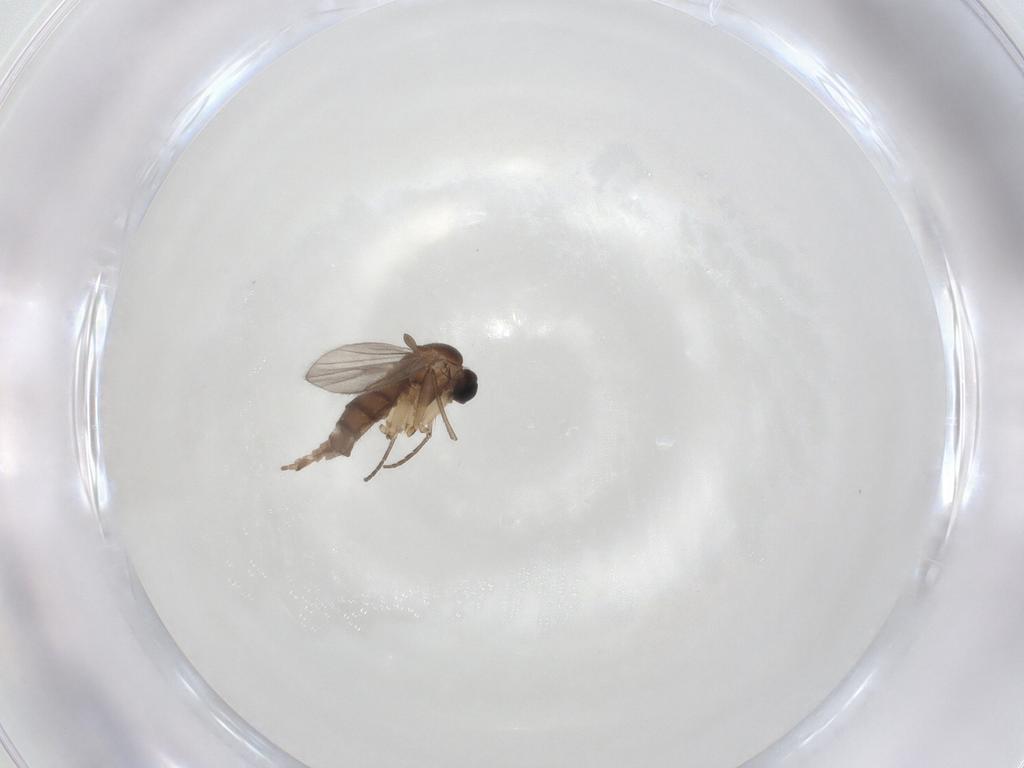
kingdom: Animalia
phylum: Arthropoda
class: Insecta
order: Diptera
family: Sciaridae
